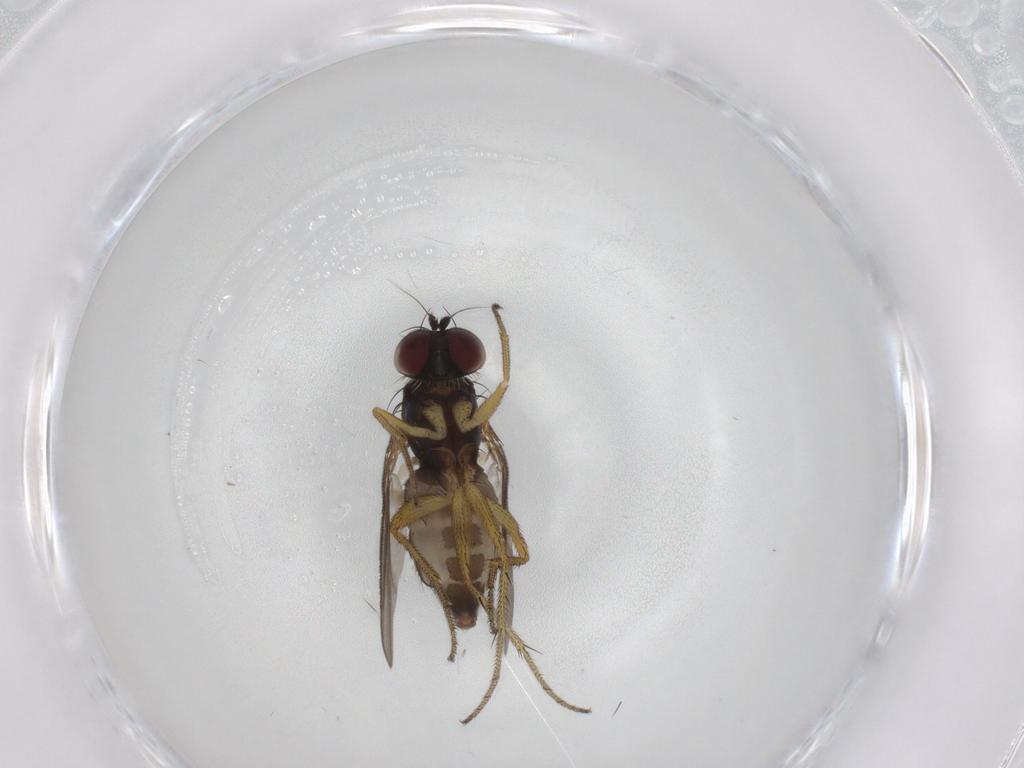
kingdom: Animalia
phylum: Arthropoda
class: Insecta
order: Diptera
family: Dolichopodidae
